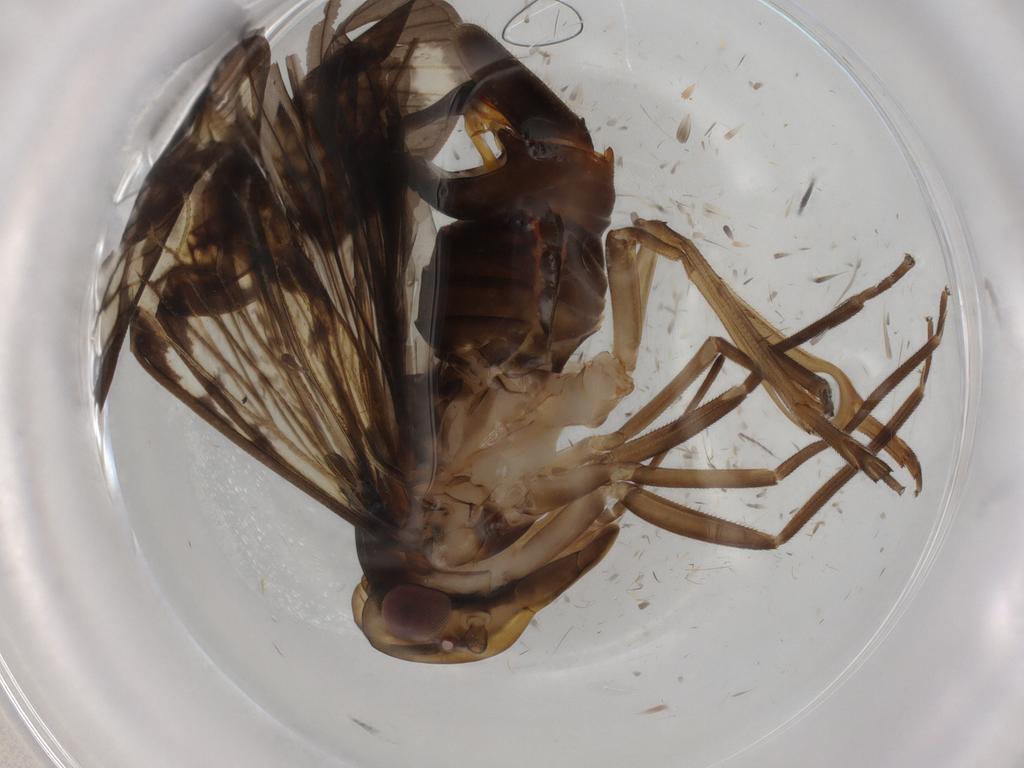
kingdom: Animalia
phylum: Arthropoda
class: Insecta
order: Hemiptera
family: Cixiidae
